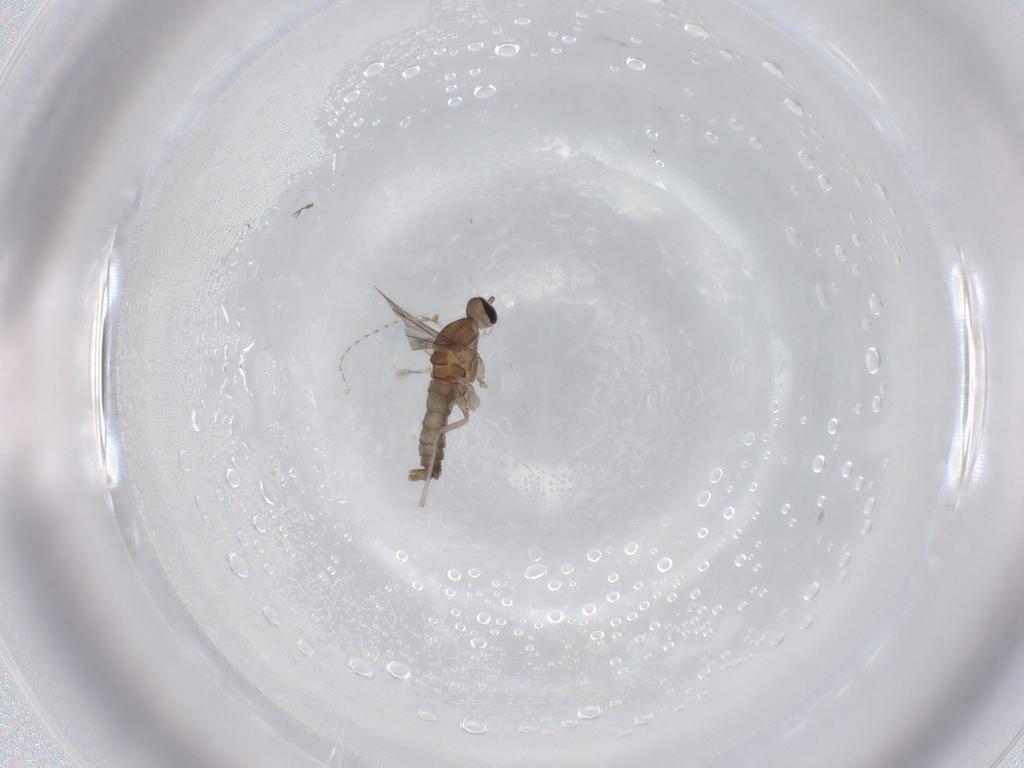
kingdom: Animalia
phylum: Arthropoda
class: Insecta
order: Diptera
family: Cecidomyiidae
